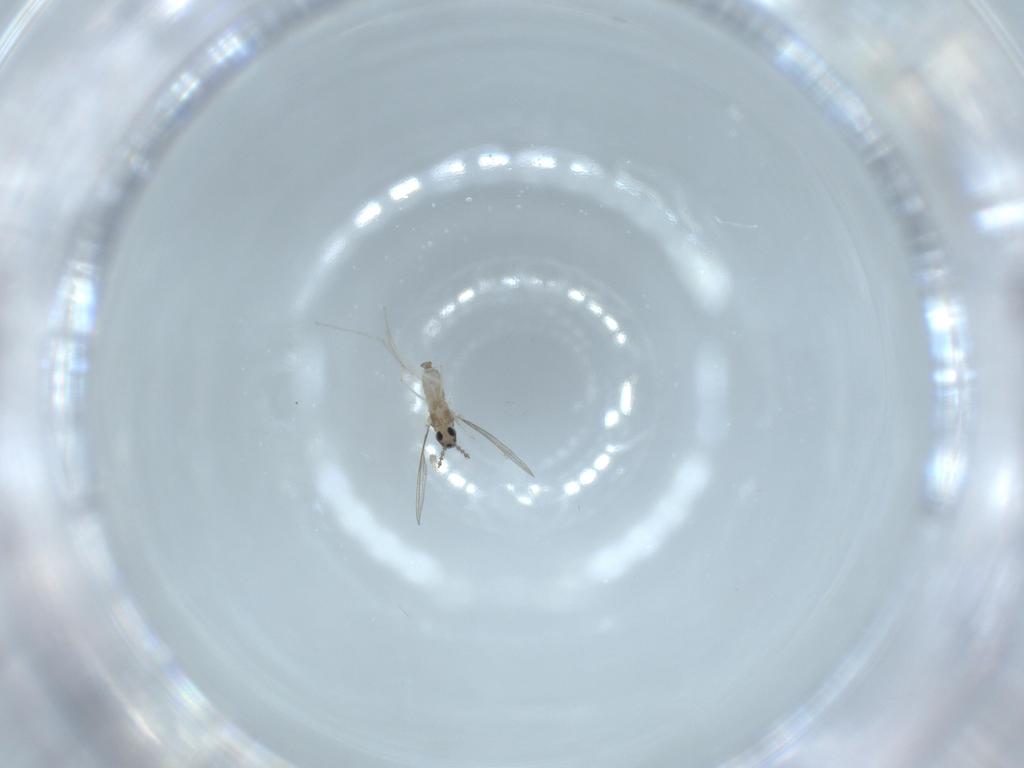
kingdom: Animalia
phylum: Arthropoda
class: Insecta
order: Diptera
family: Cecidomyiidae
